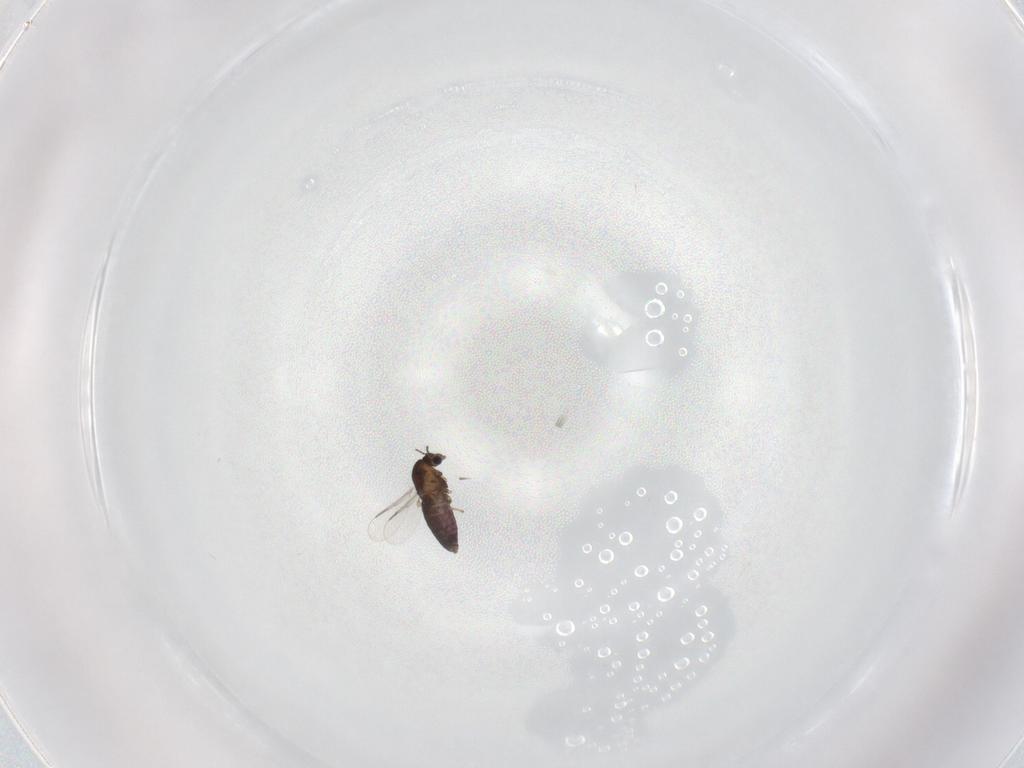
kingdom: Animalia
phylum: Arthropoda
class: Insecta
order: Diptera
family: Chironomidae
